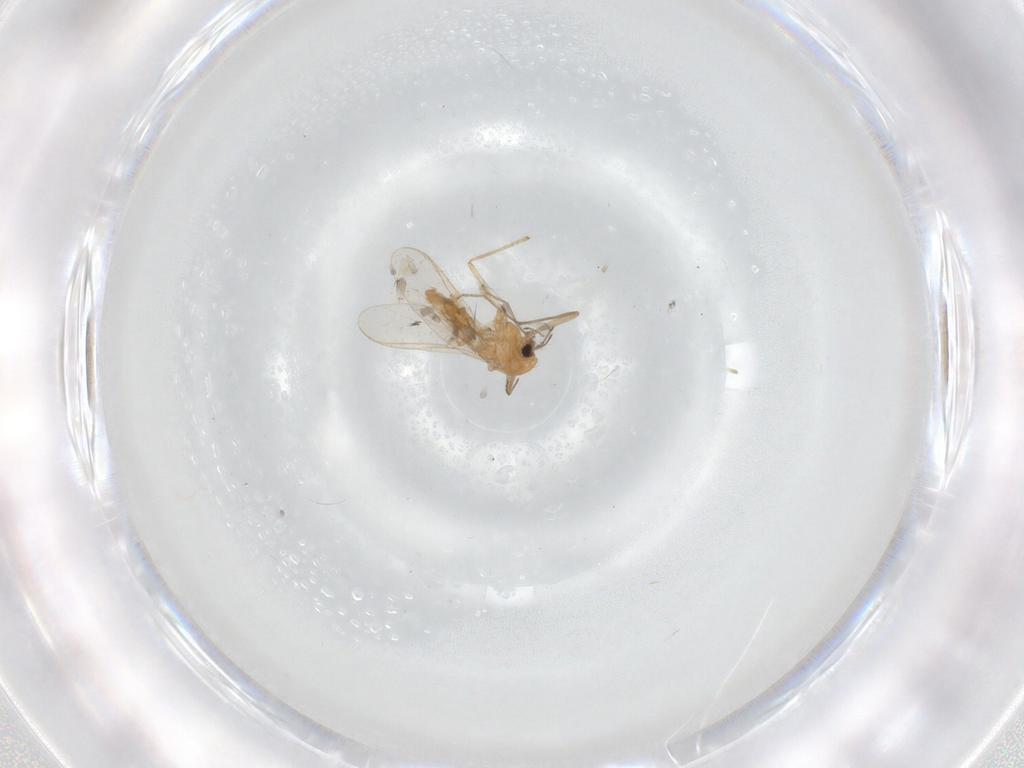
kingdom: Animalia
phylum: Arthropoda
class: Insecta
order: Diptera
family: Chironomidae
